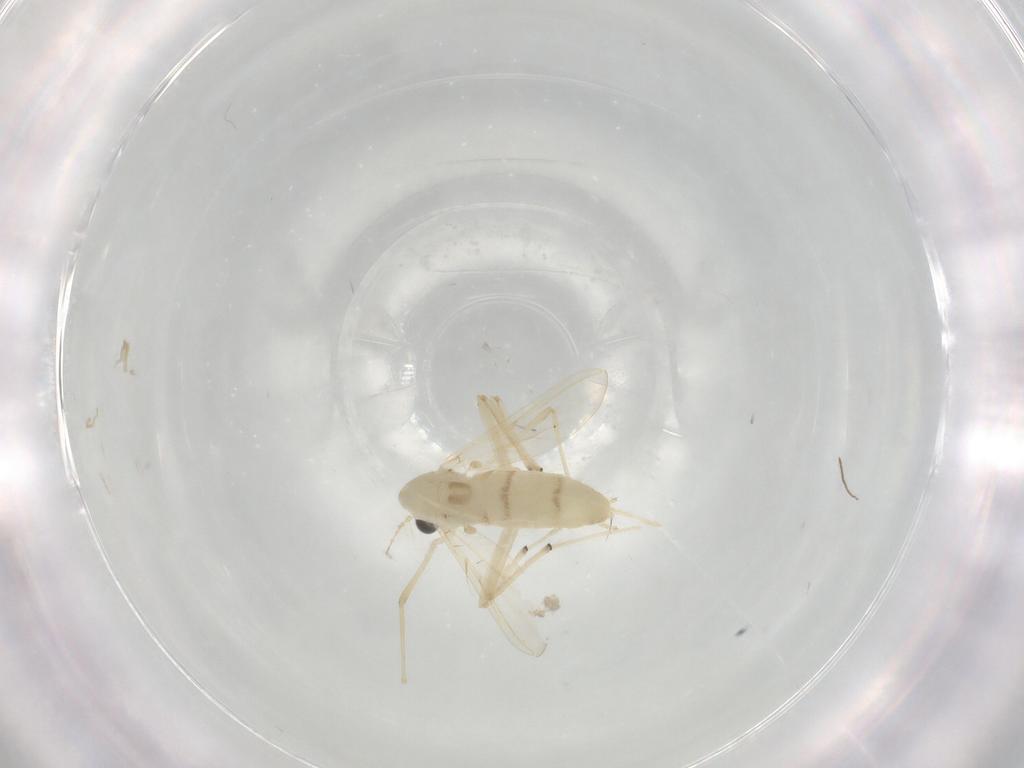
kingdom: Animalia
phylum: Arthropoda
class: Insecta
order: Diptera
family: Chironomidae
